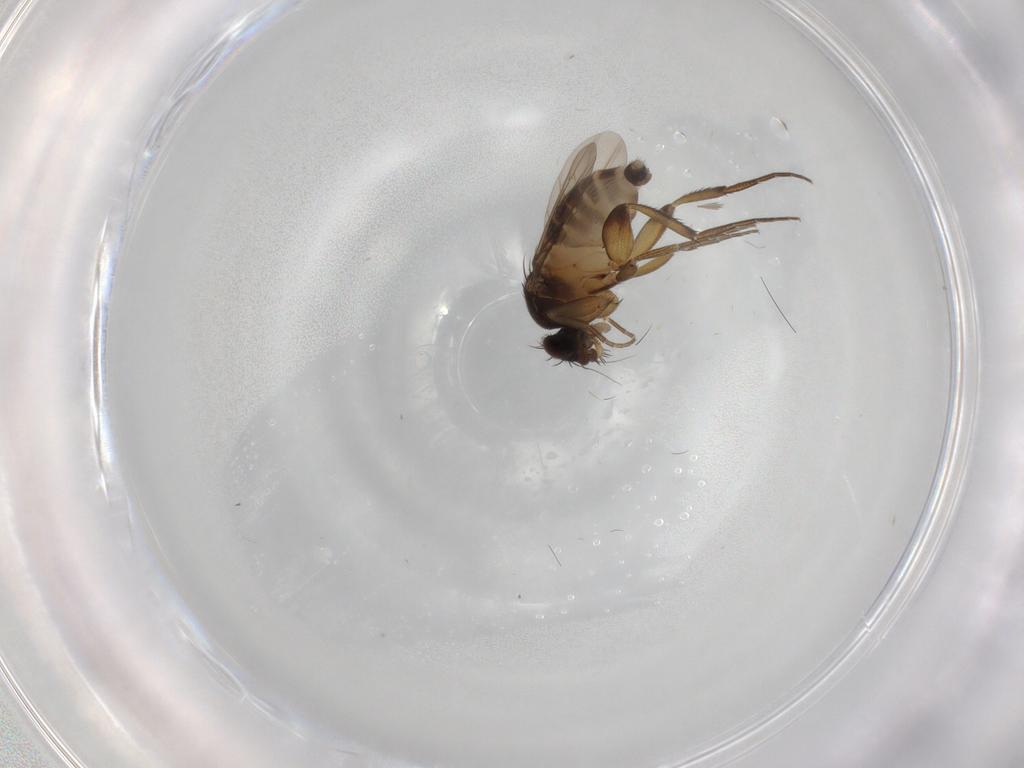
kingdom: Animalia
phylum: Arthropoda
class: Insecta
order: Diptera
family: Phoridae
